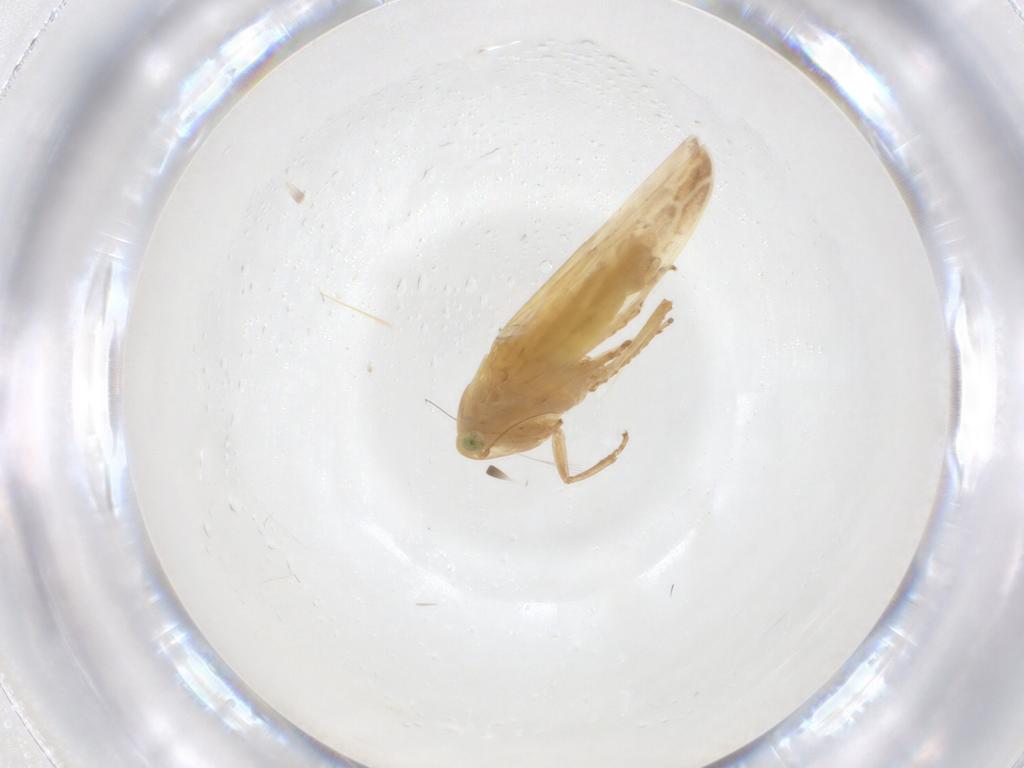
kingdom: Animalia
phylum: Arthropoda
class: Insecta
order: Hemiptera
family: Cicadellidae
